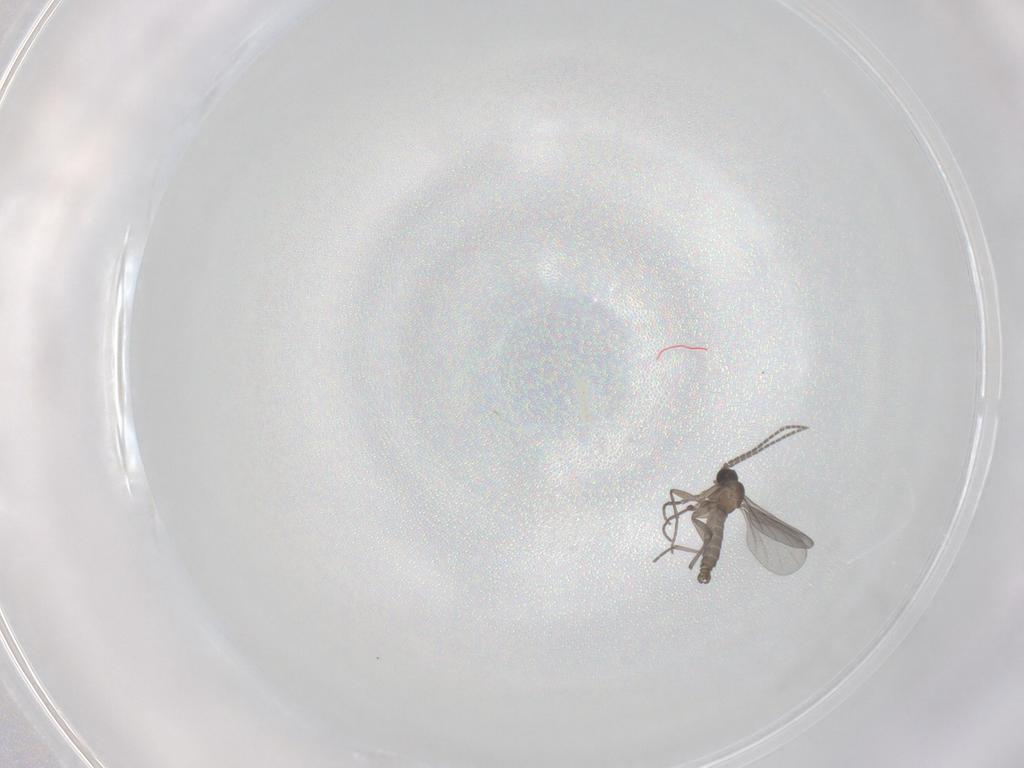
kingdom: Animalia
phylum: Arthropoda
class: Insecta
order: Diptera
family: Sciaridae
